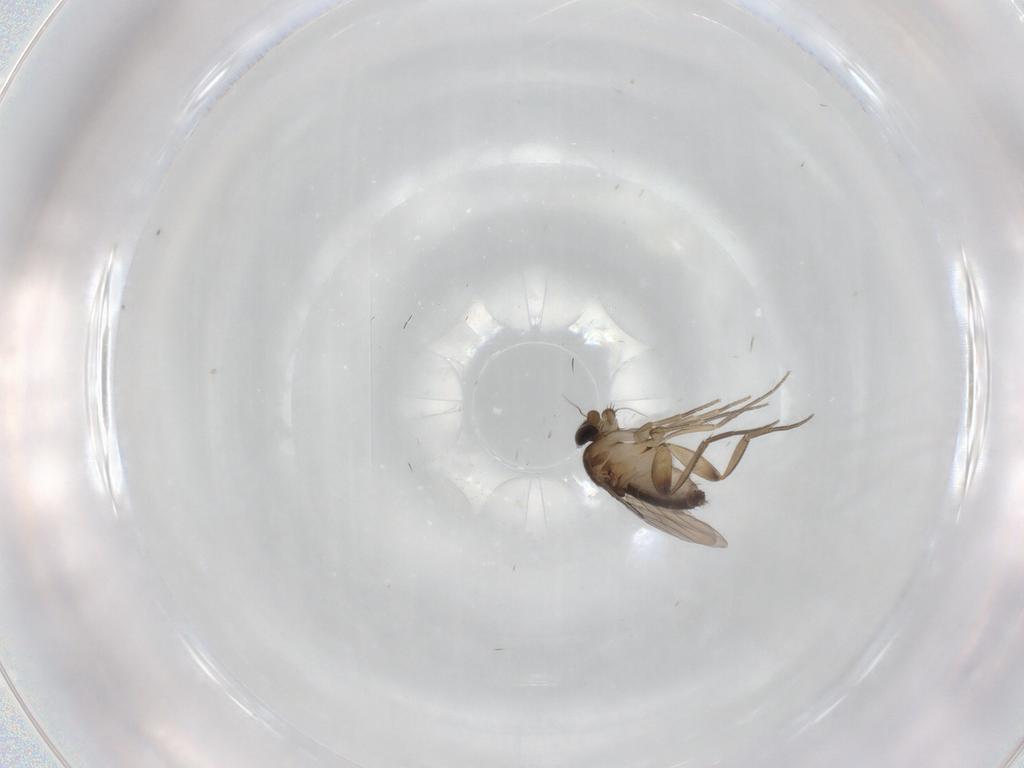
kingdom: Animalia
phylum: Arthropoda
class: Insecta
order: Diptera
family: Phoridae
